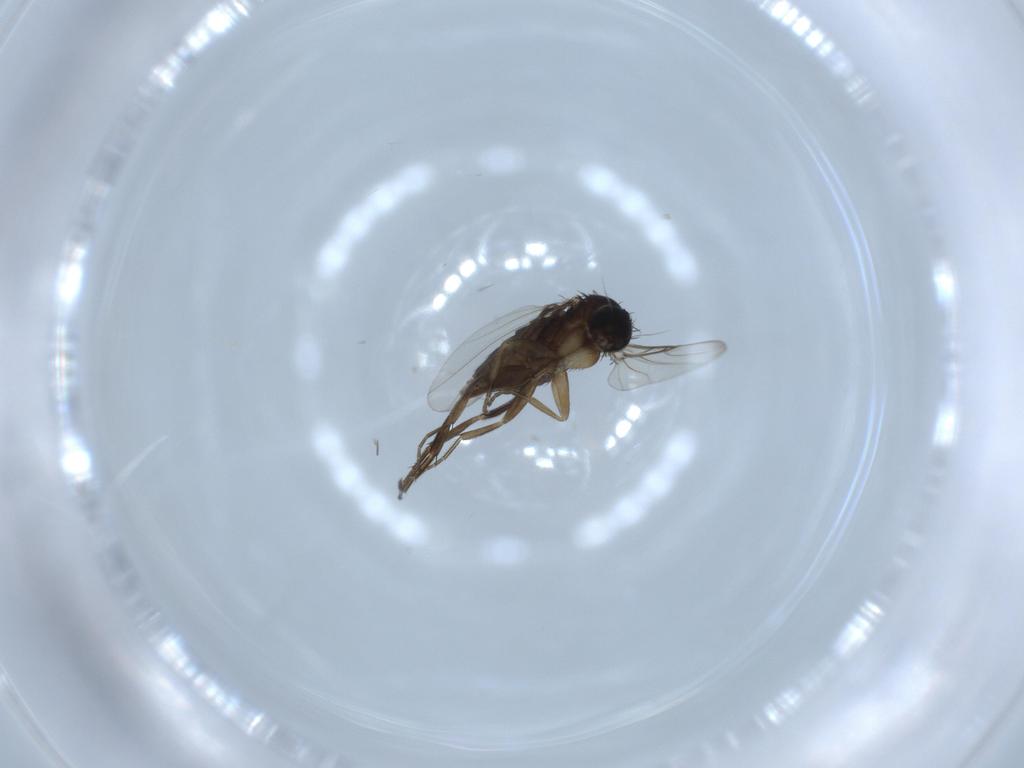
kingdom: Animalia
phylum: Arthropoda
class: Insecta
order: Diptera
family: Phoridae
